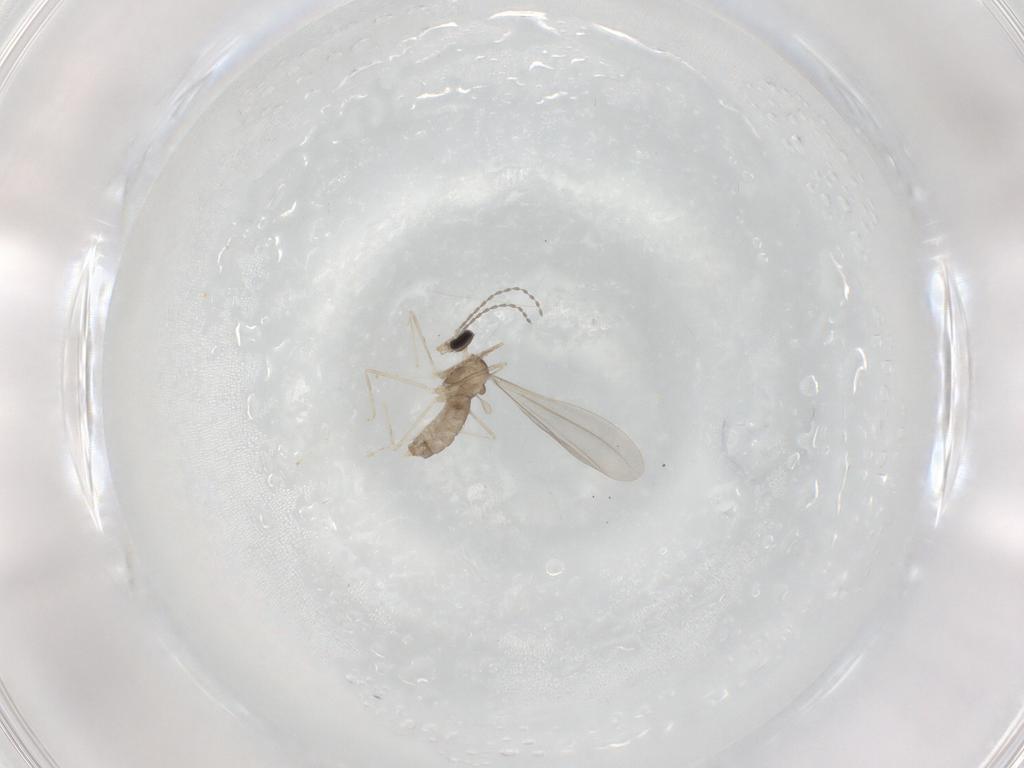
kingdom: Animalia
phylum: Arthropoda
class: Insecta
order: Diptera
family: Cecidomyiidae
